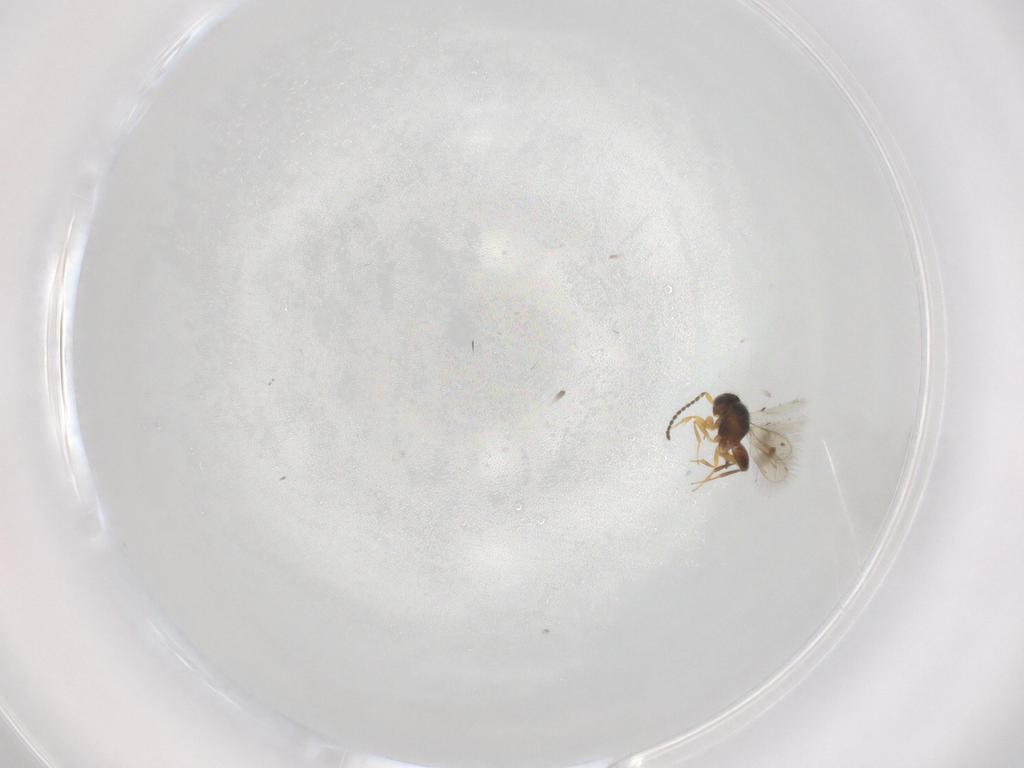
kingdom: Animalia
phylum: Arthropoda
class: Insecta
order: Hymenoptera
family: Scelionidae
